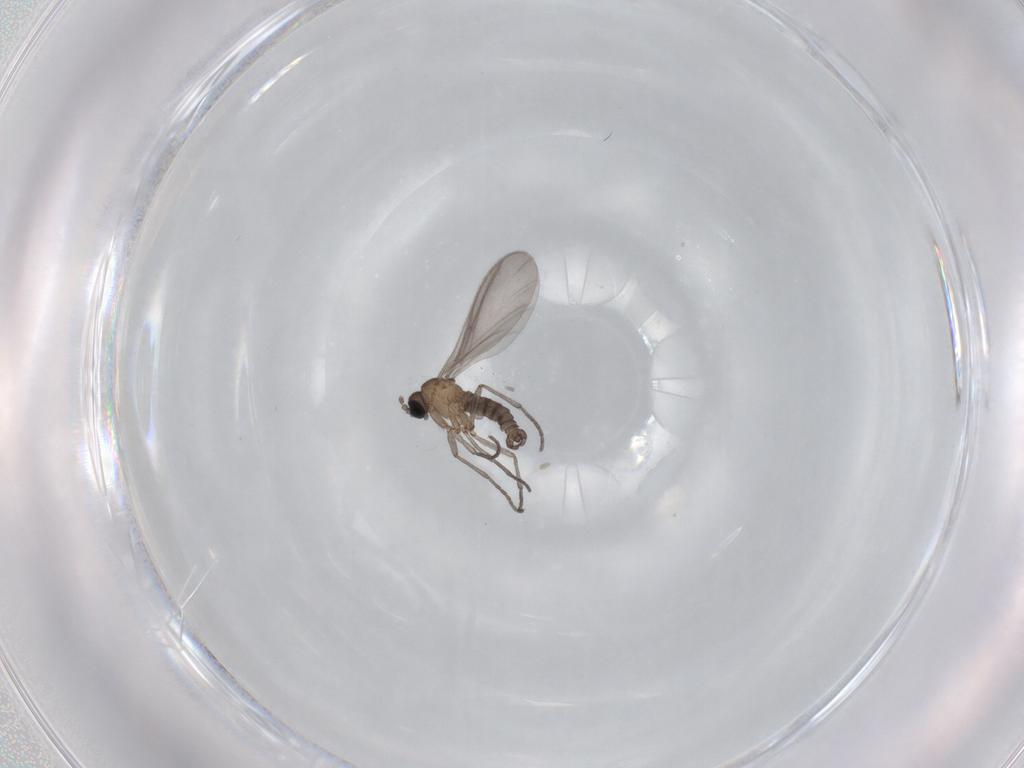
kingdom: Animalia
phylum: Arthropoda
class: Insecta
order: Diptera
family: Sciaridae
